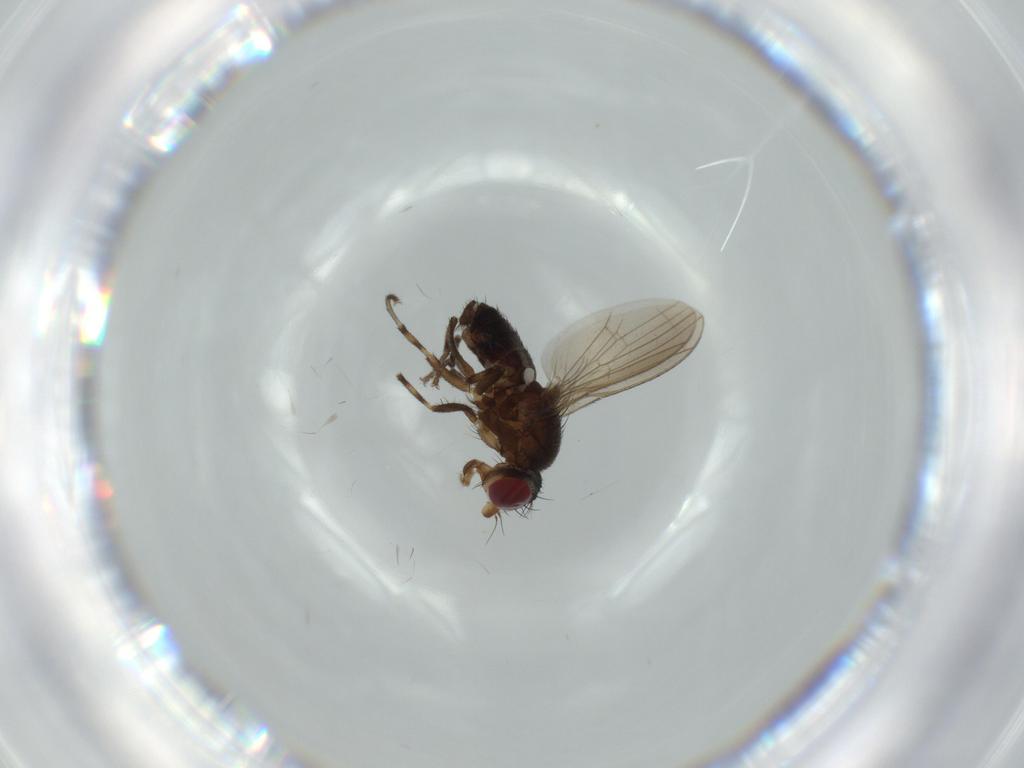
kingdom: Animalia
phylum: Arthropoda
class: Insecta
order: Diptera
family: Heleomyzidae
